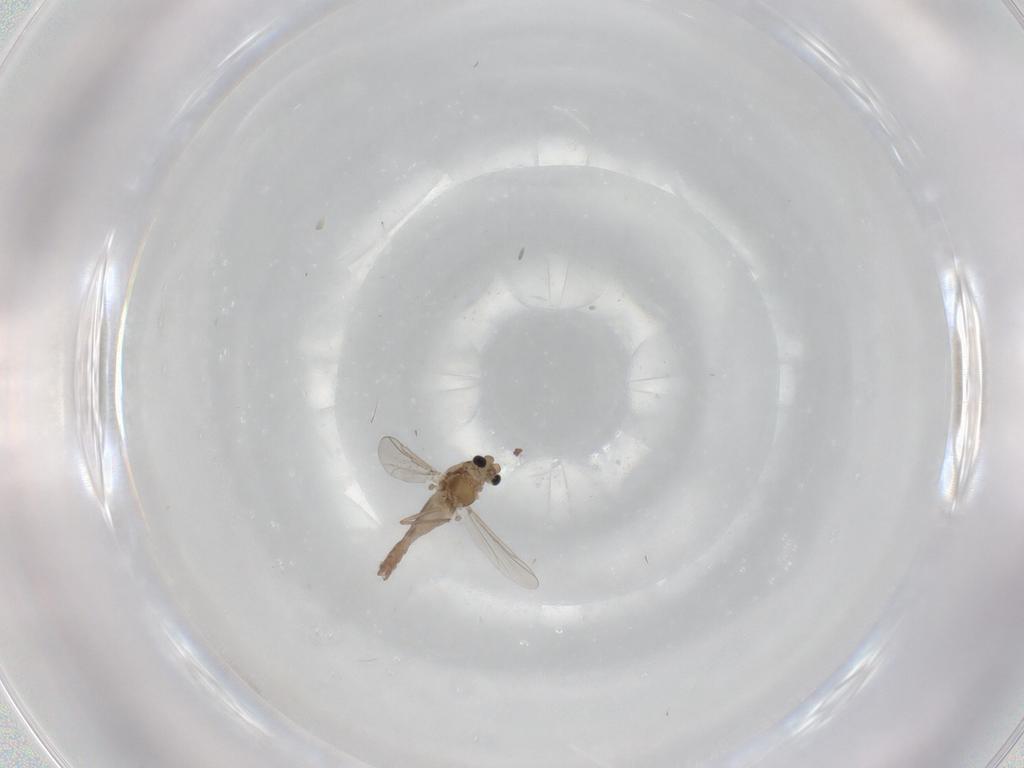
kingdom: Animalia
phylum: Arthropoda
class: Insecta
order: Diptera
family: Chironomidae
